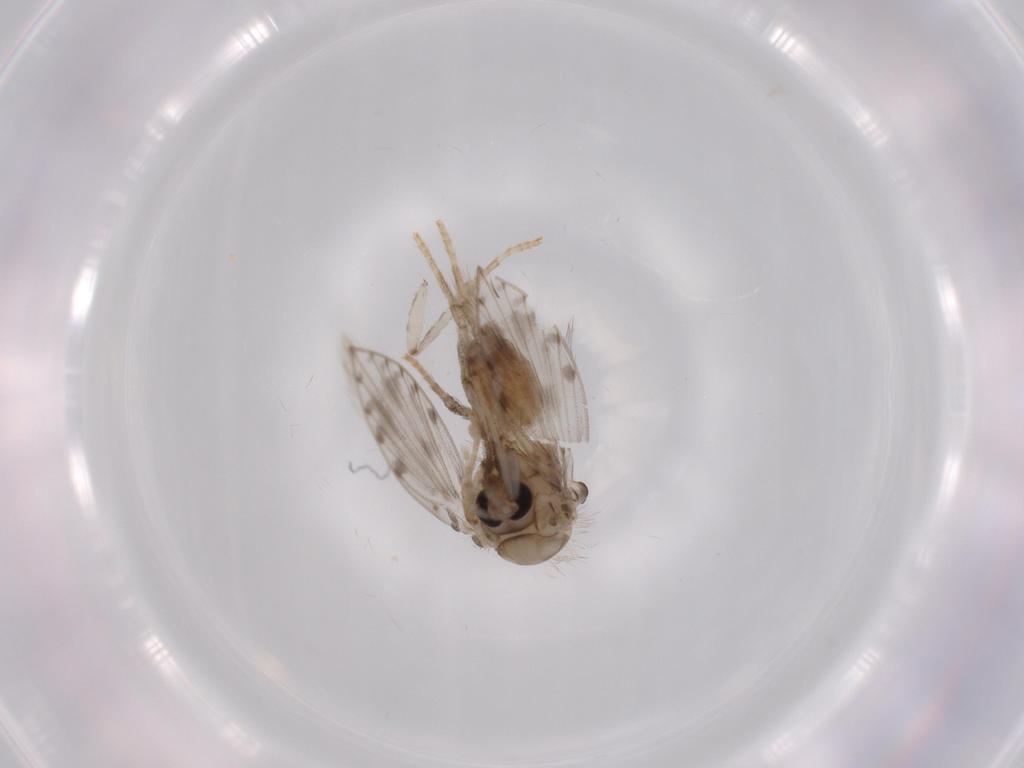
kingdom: Animalia
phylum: Arthropoda
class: Insecta
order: Diptera
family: Psychodidae
